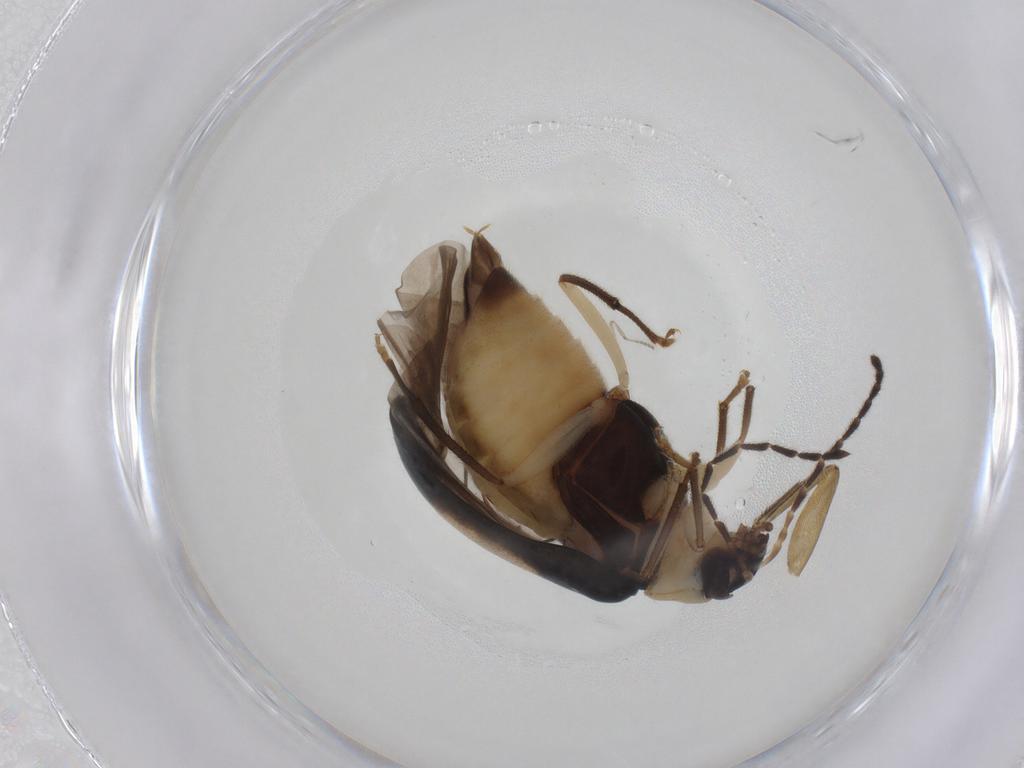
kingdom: Animalia
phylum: Arthropoda
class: Insecta
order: Coleoptera
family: Chrysomelidae
